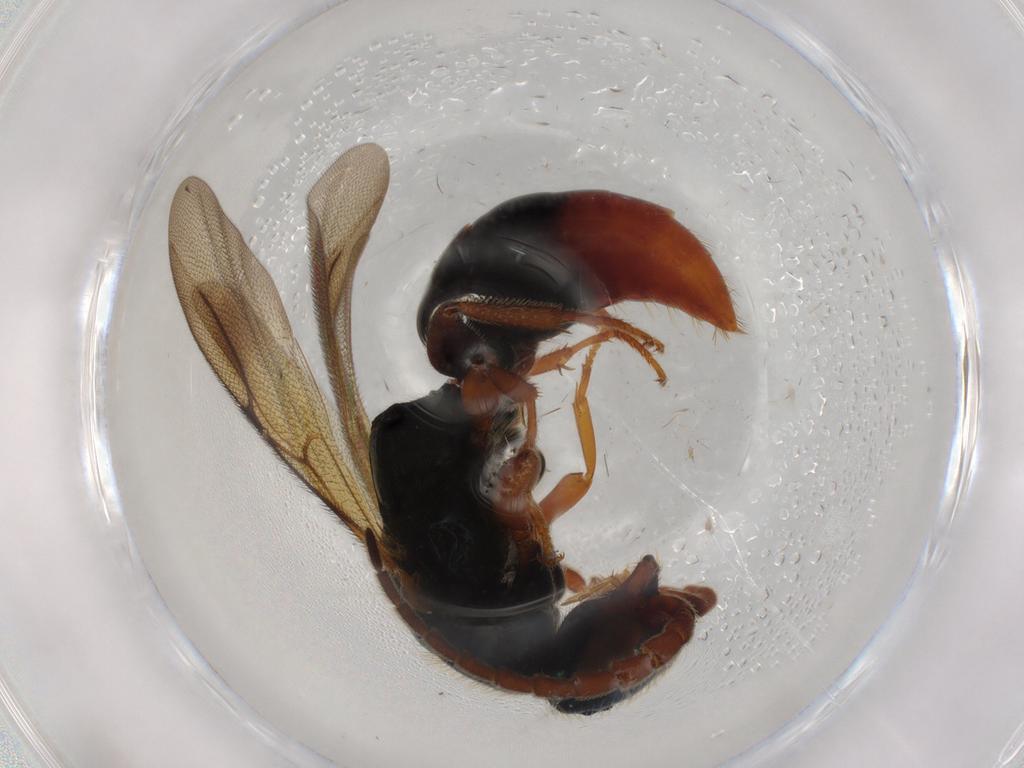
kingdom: Animalia
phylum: Arthropoda
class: Insecta
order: Hymenoptera
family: Bethylidae
